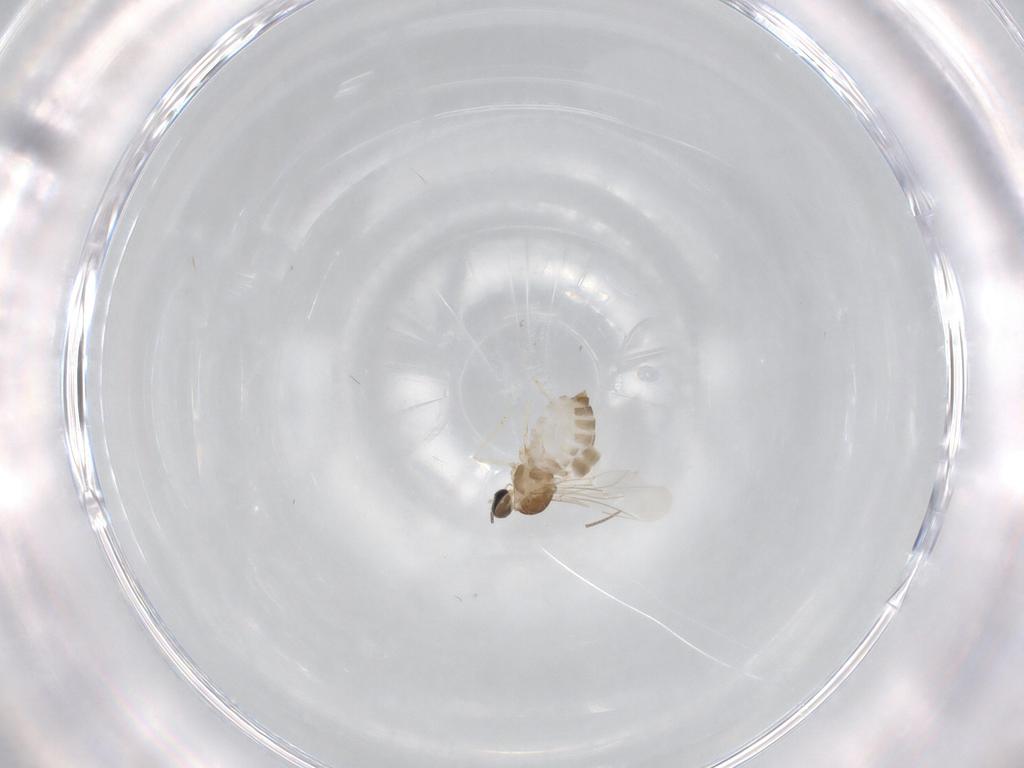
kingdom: Animalia
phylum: Arthropoda
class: Insecta
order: Diptera
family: Cecidomyiidae
